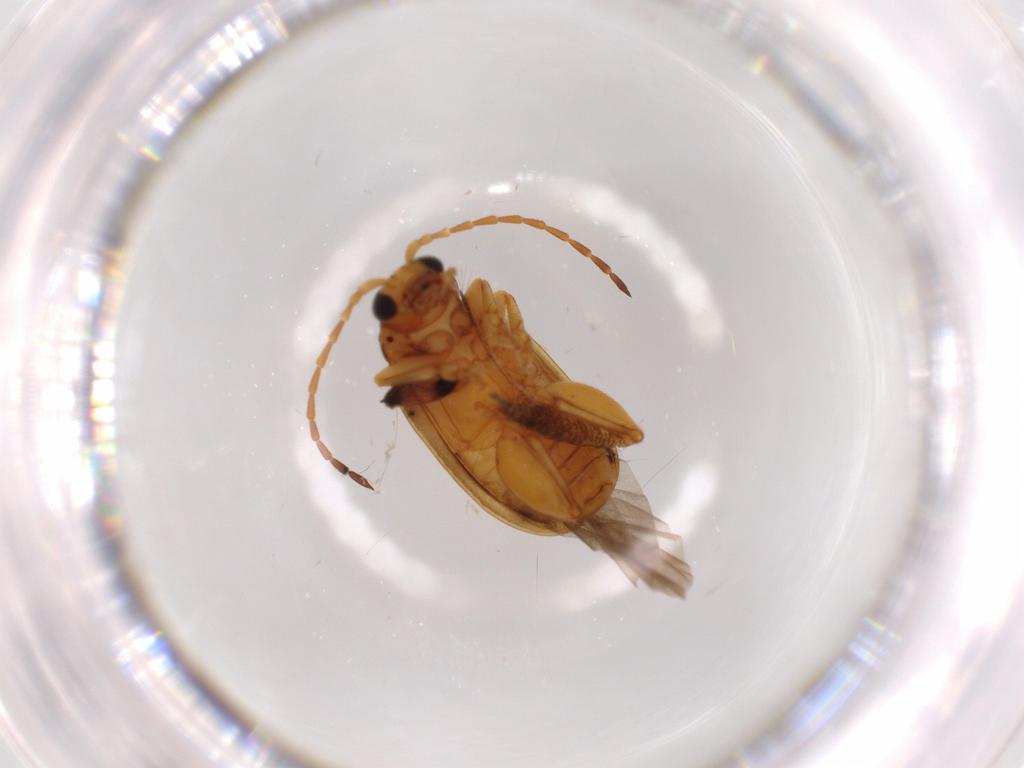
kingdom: Animalia
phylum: Arthropoda
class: Insecta
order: Coleoptera
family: Chrysomelidae
